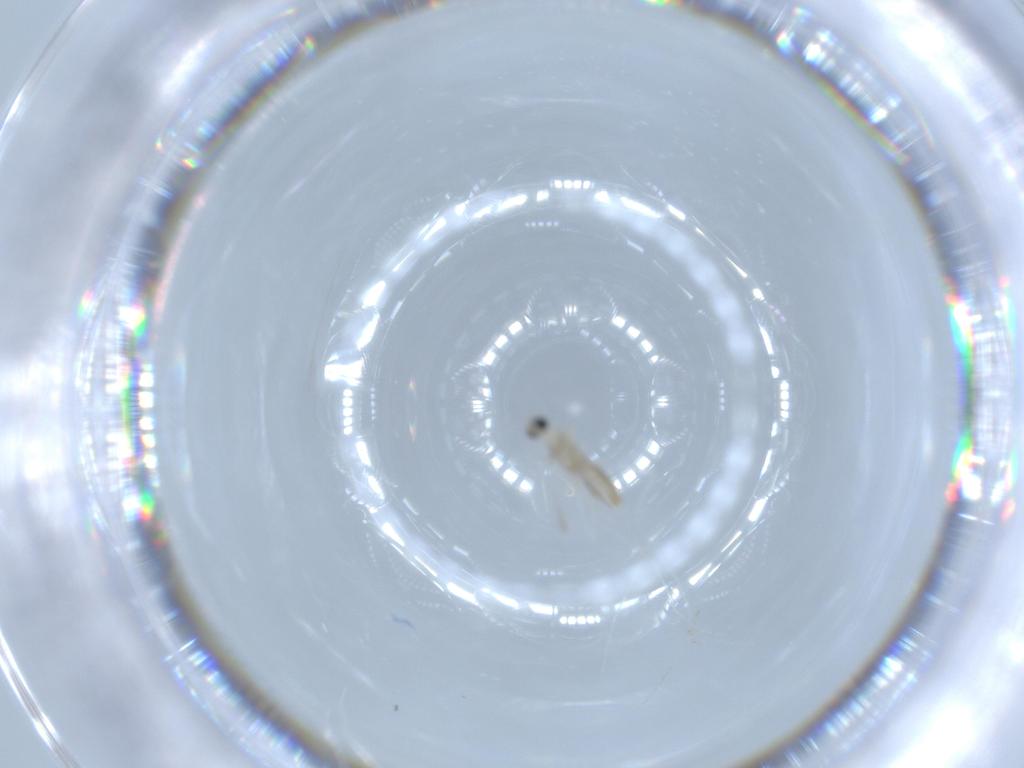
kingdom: Animalia
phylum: Arthropoda
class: Insecta
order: Diptera
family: Cecidomyiidae
